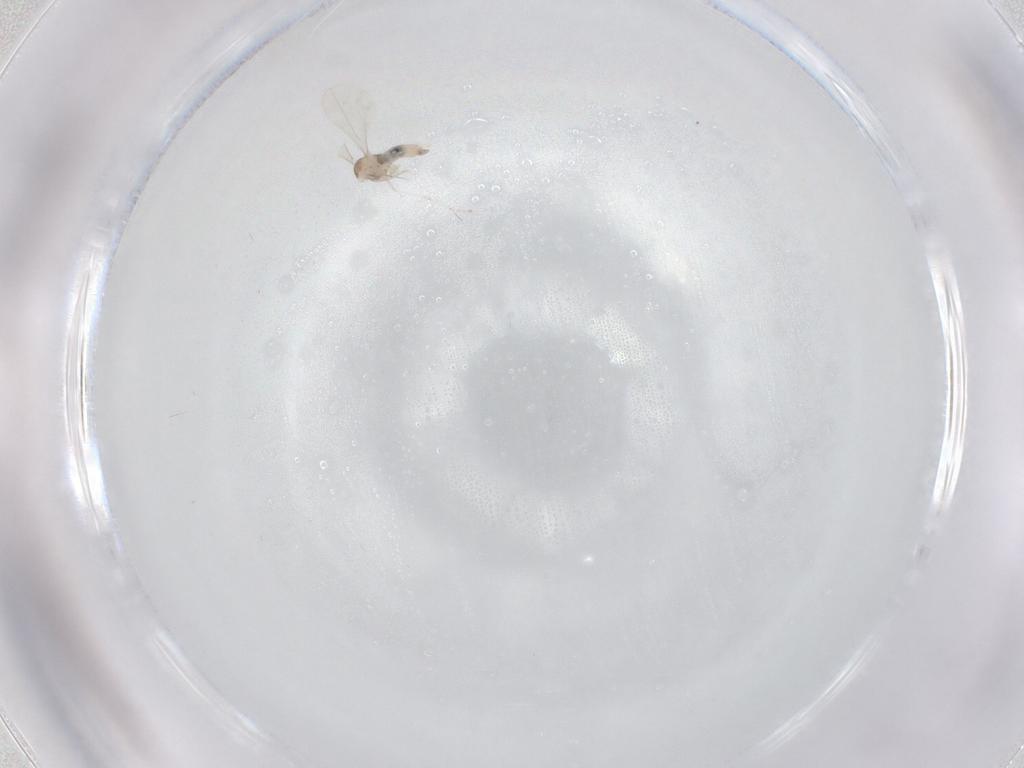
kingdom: Animalia
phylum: Arthropoda
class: Insecta
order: Diptera
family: Cecidomyiidae
